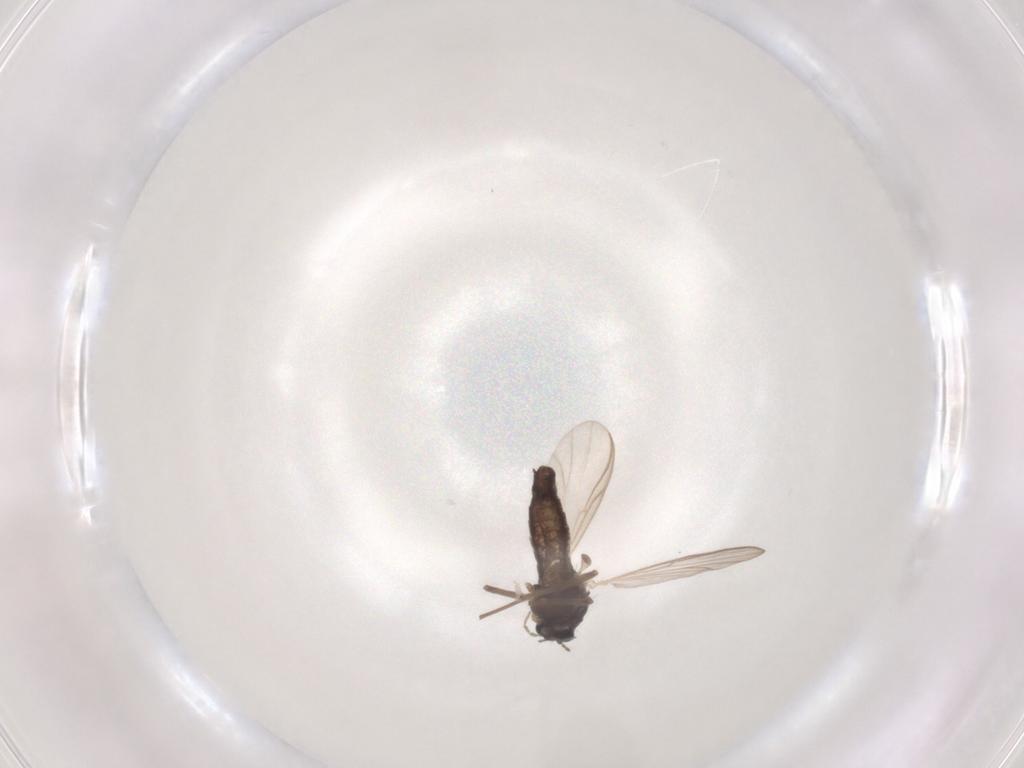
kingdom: Animalia
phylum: Arthropoda
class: Insecta
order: Diptera
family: Chironomidae
